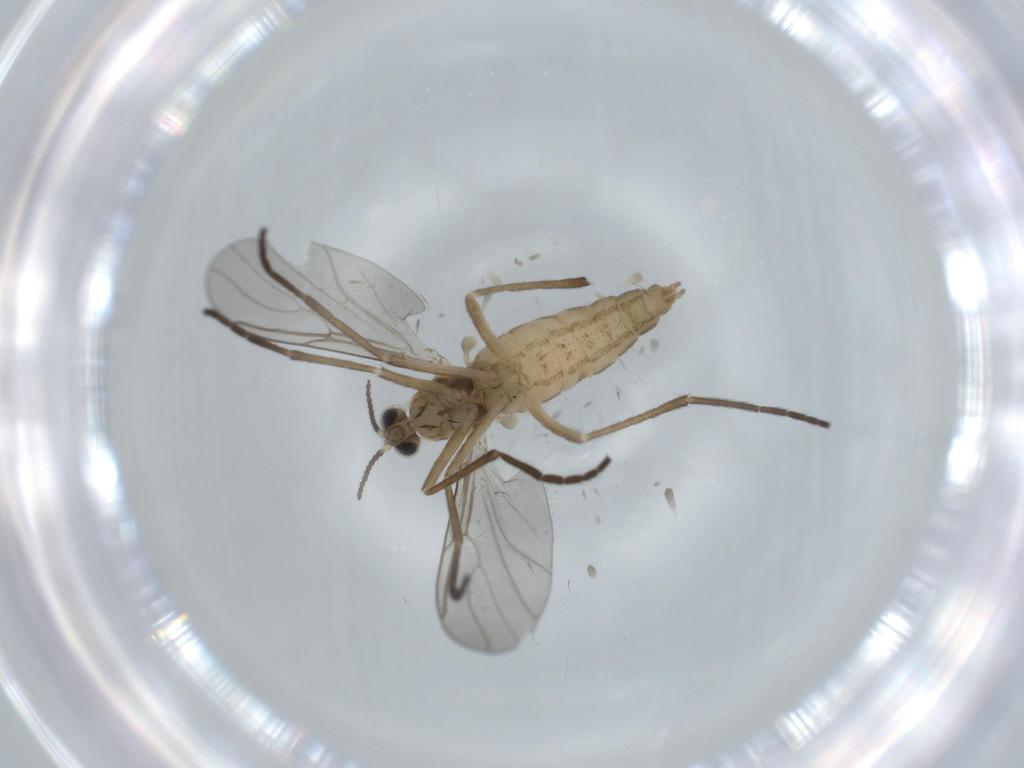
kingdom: Animalia
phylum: Arthropoda
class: Insecta
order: Diptera
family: Cecidomyiidae
